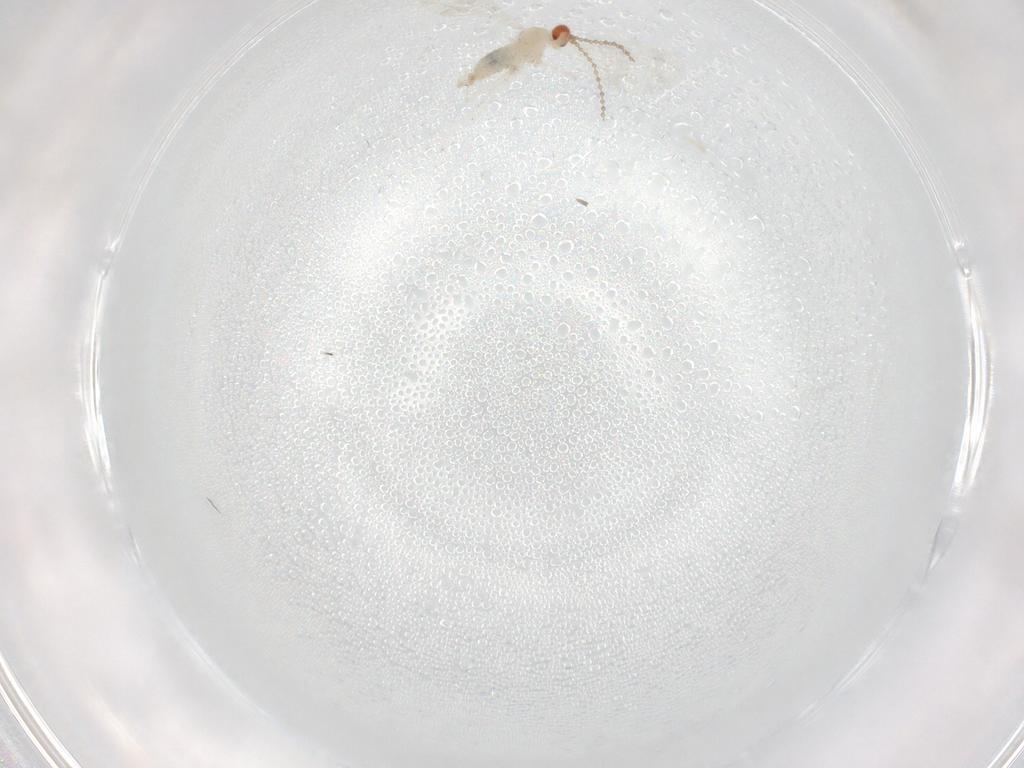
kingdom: Animalia
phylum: Arthropoda
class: Insecta
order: Diptera
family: Cecidomyiidae
